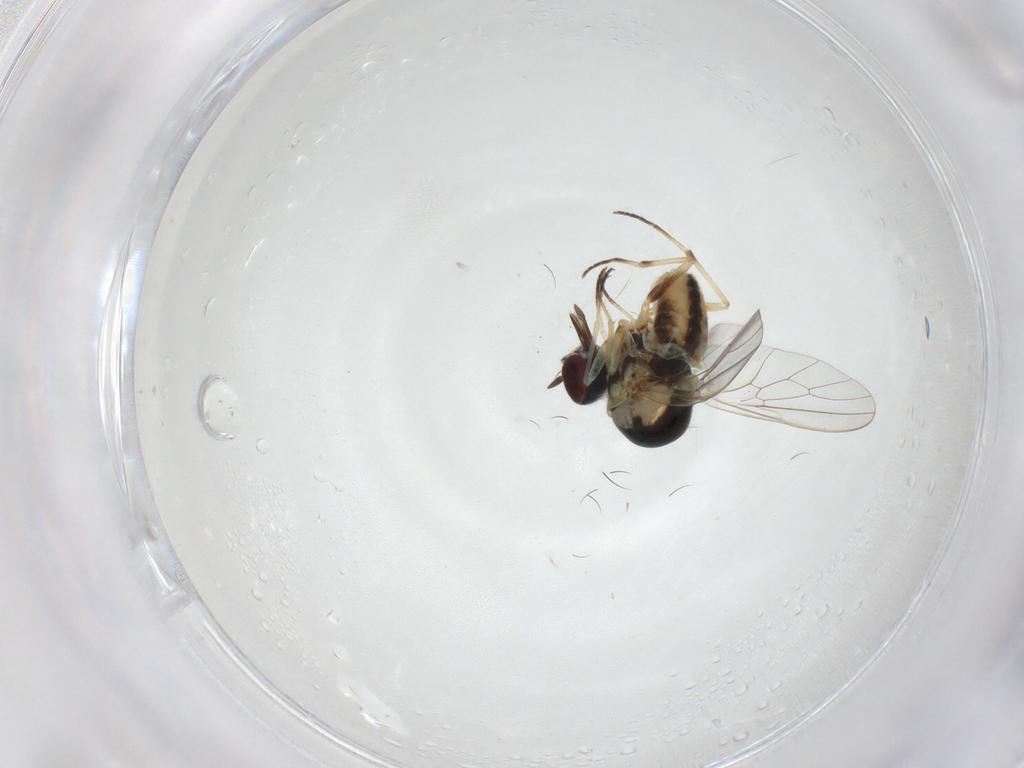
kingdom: Animalia
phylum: Arthropoda
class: Insecta
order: Diptera
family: Mythicomyiidae
